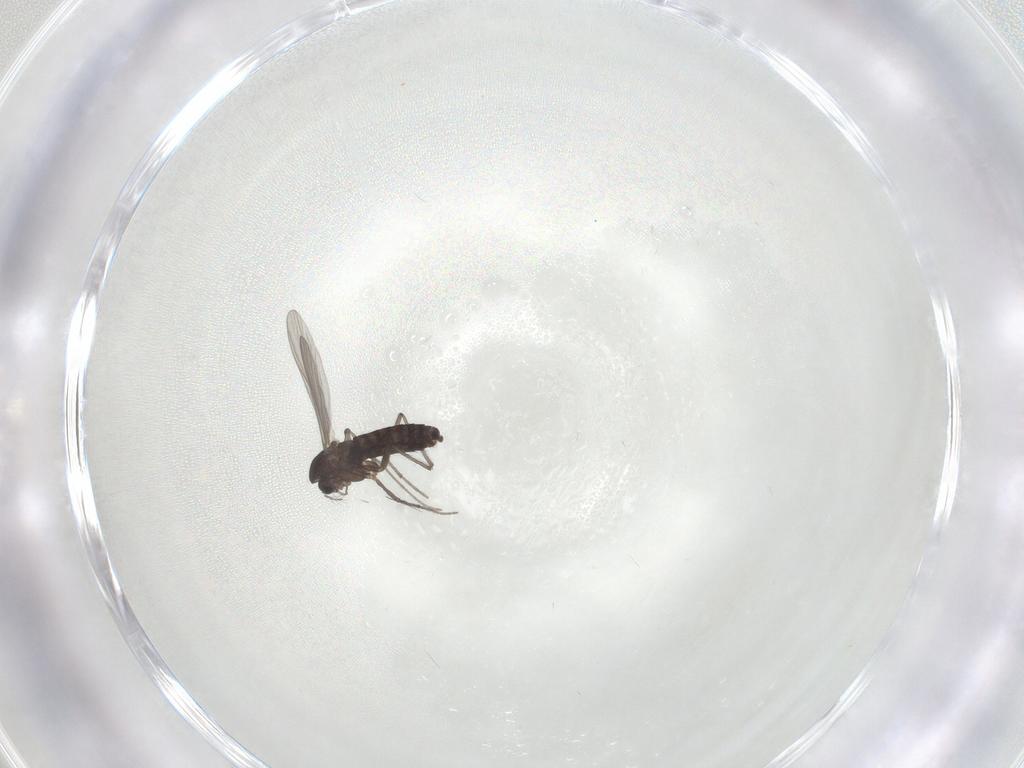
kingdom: Animalia
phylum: Arthropoda
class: Insecta
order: Diptera
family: Chironomidae
